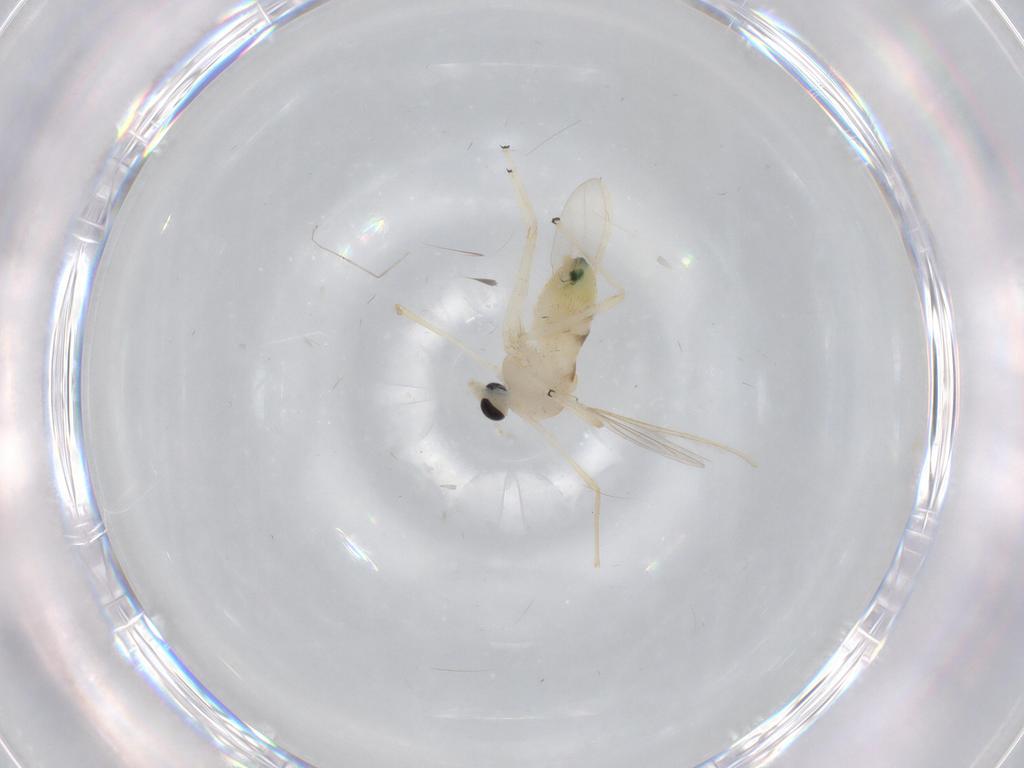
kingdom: Animalia
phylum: Arthropoda
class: Insecta
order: Diptera
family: Chironomidae
